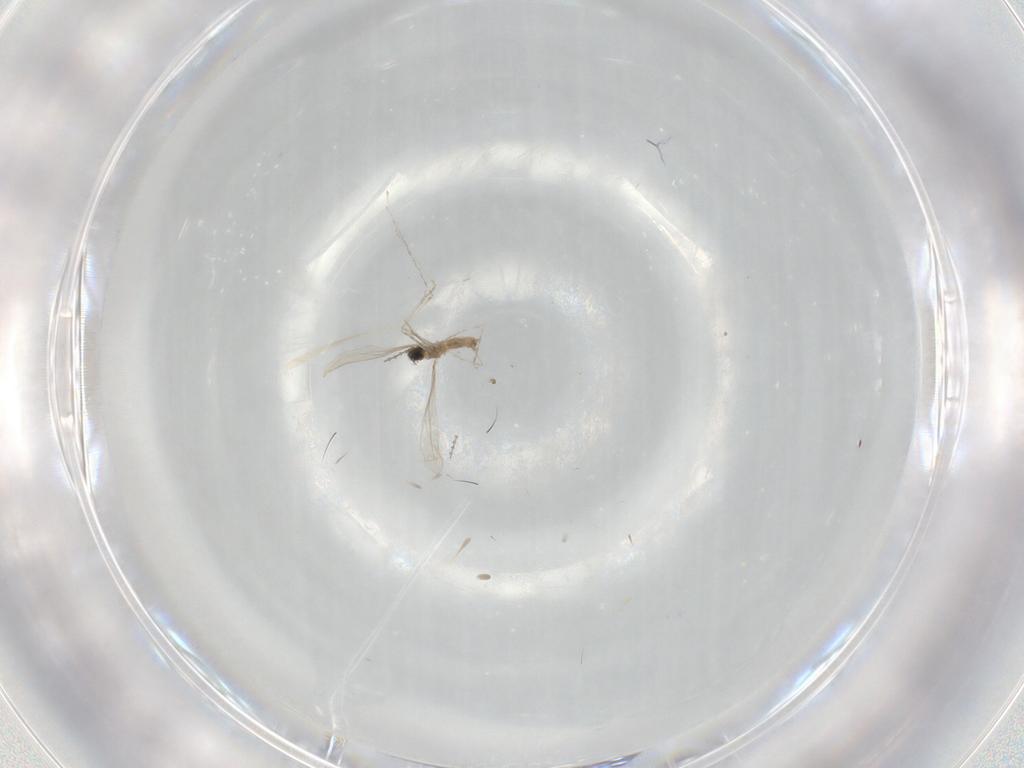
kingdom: Animalia
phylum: Arthropoda
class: Insecta
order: Diptera
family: Cecidomyiidae
